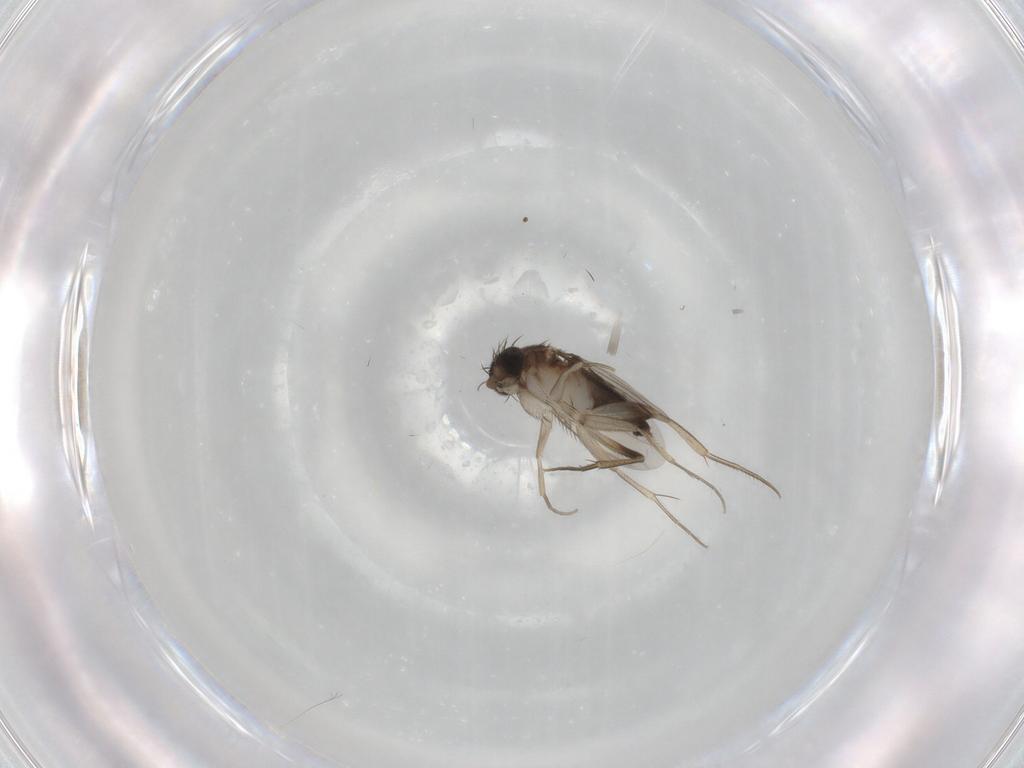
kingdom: Animalia
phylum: Arthropoda
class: Insecta
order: Diptera
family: Phoridae
